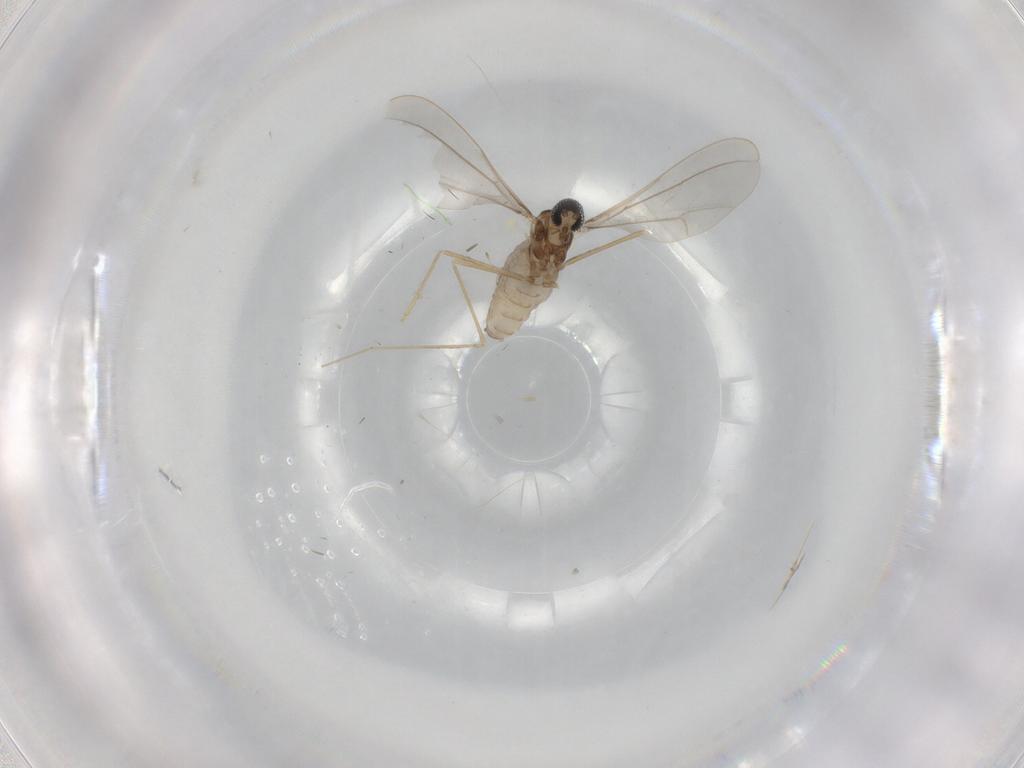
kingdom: Animalia
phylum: Arthropoda
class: Insecta
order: Diptera
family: Cecidomyiidae
